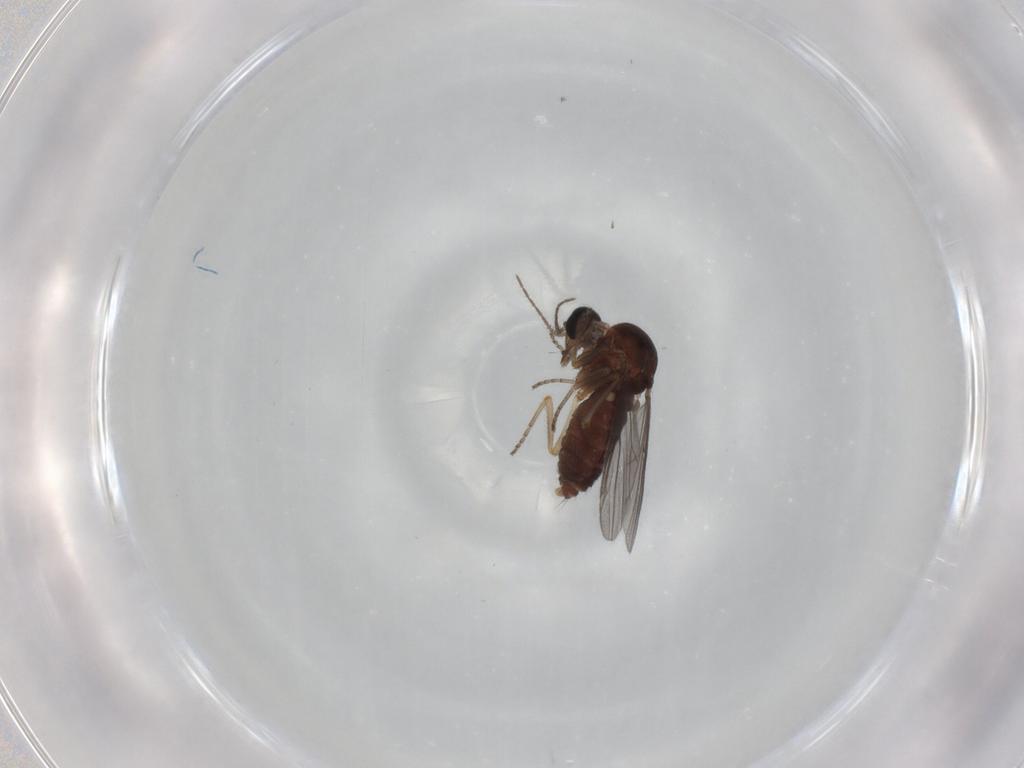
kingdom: Animalia
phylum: Arthropoda
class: Insecta
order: Diptera
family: Ceratopogonidae
